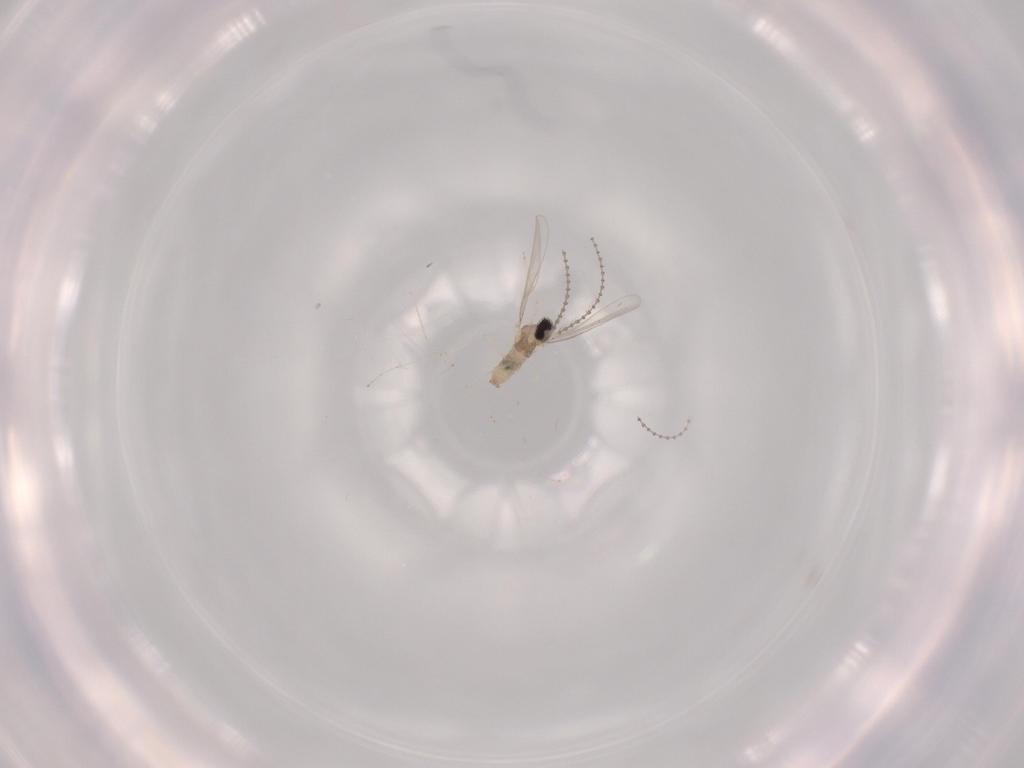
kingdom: Animalia
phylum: Arthropoda
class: Insecta
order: Diptera
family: Cecidomyiidae
